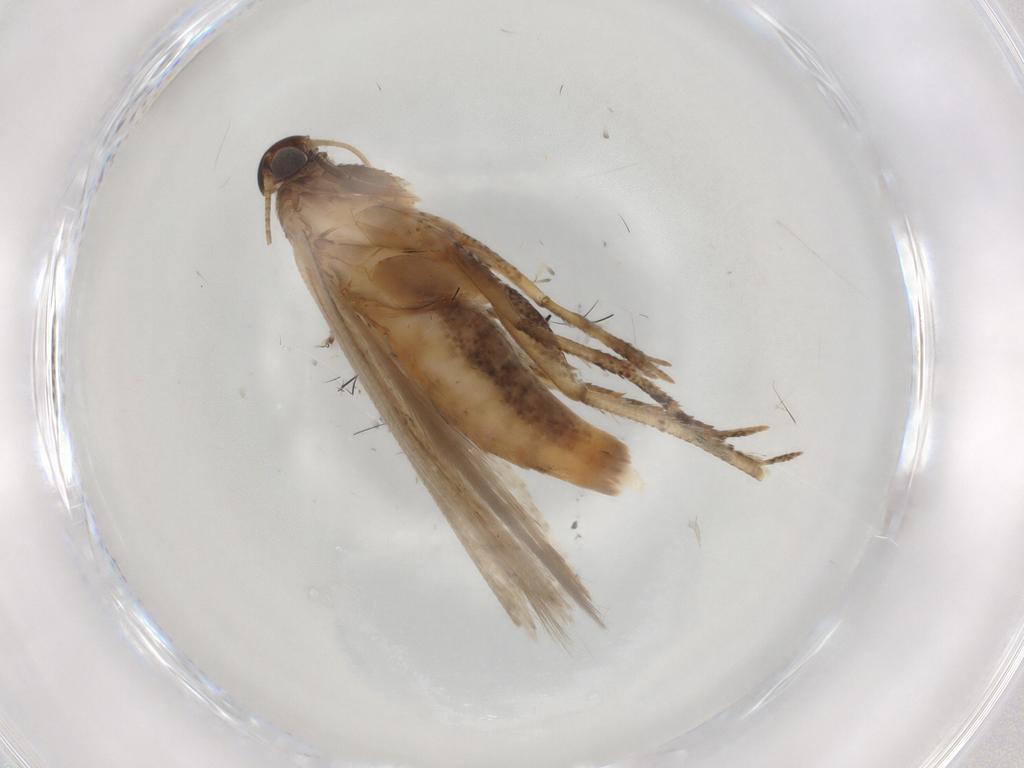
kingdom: Animalia
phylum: Arthropoda
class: Insecta
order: Lepidoptera
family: Gelechiidae
